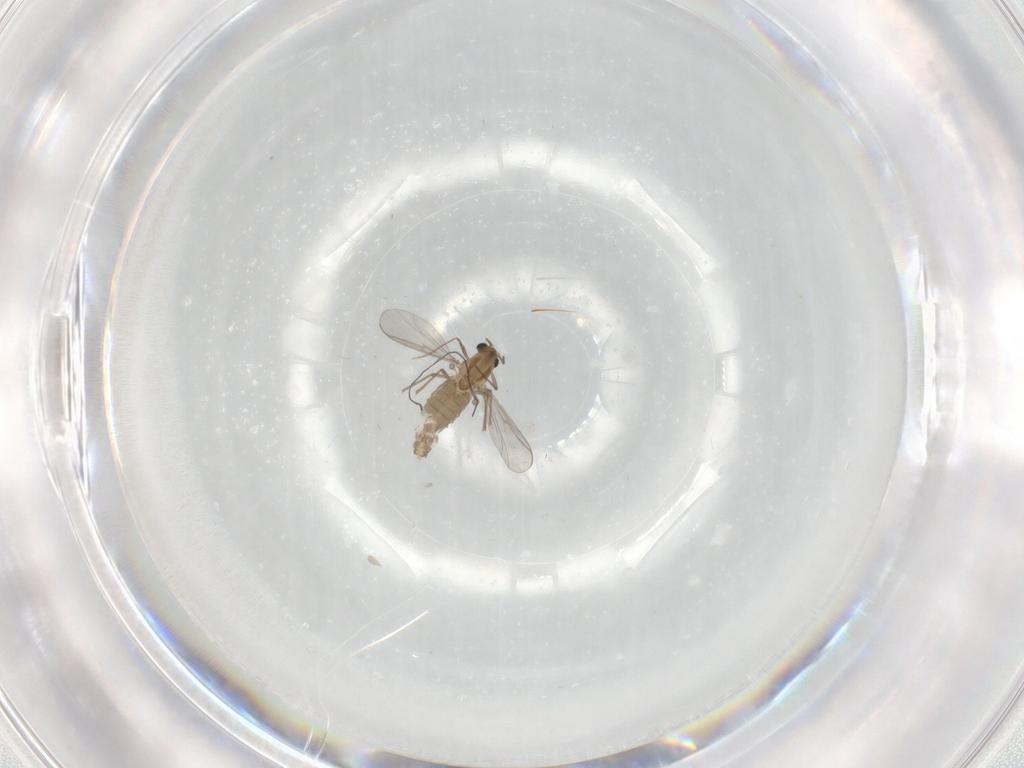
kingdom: Animalia
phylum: Arthropoda
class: Insecta
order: Diptera
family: Chironomidae
